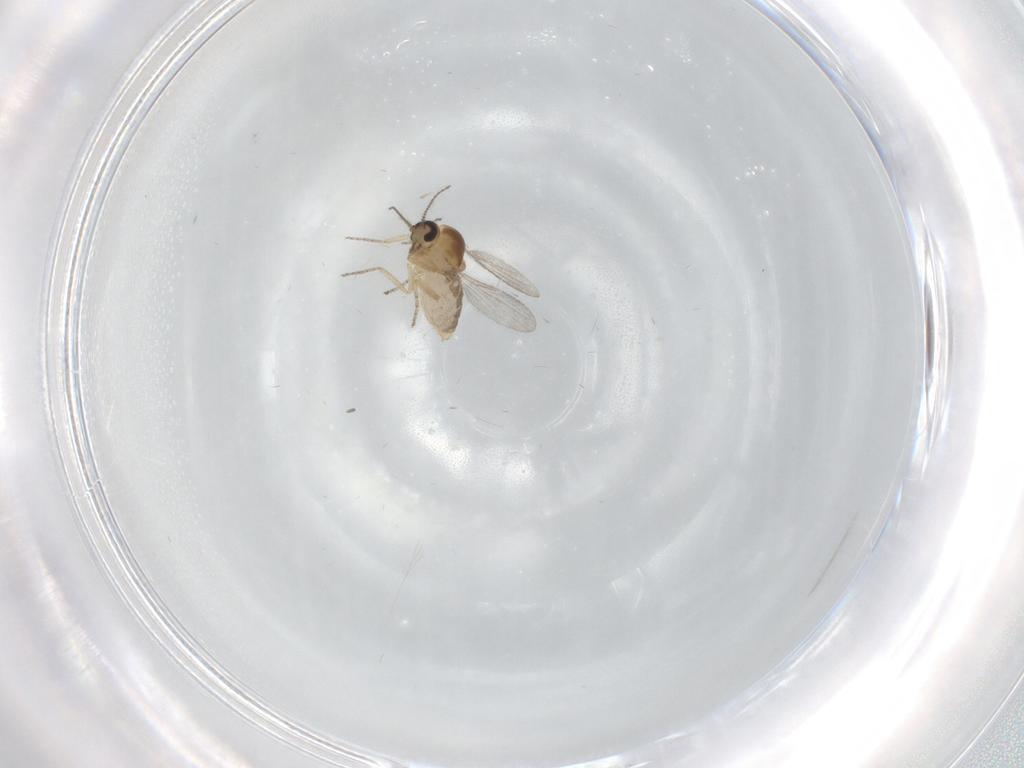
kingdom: Animalia
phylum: Arthropoda
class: Insecta
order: Diptera
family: Ceratopogonidae
